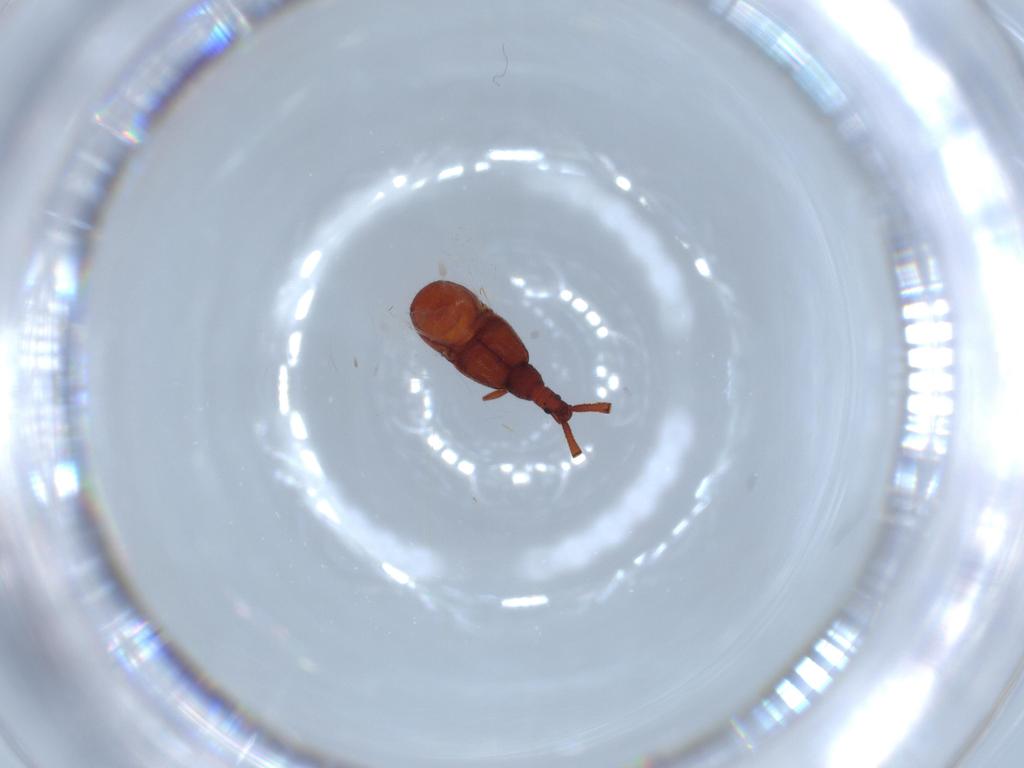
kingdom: Animalia
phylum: Arthropoda
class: Insecta
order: Coleoptera
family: Staphylinidae
